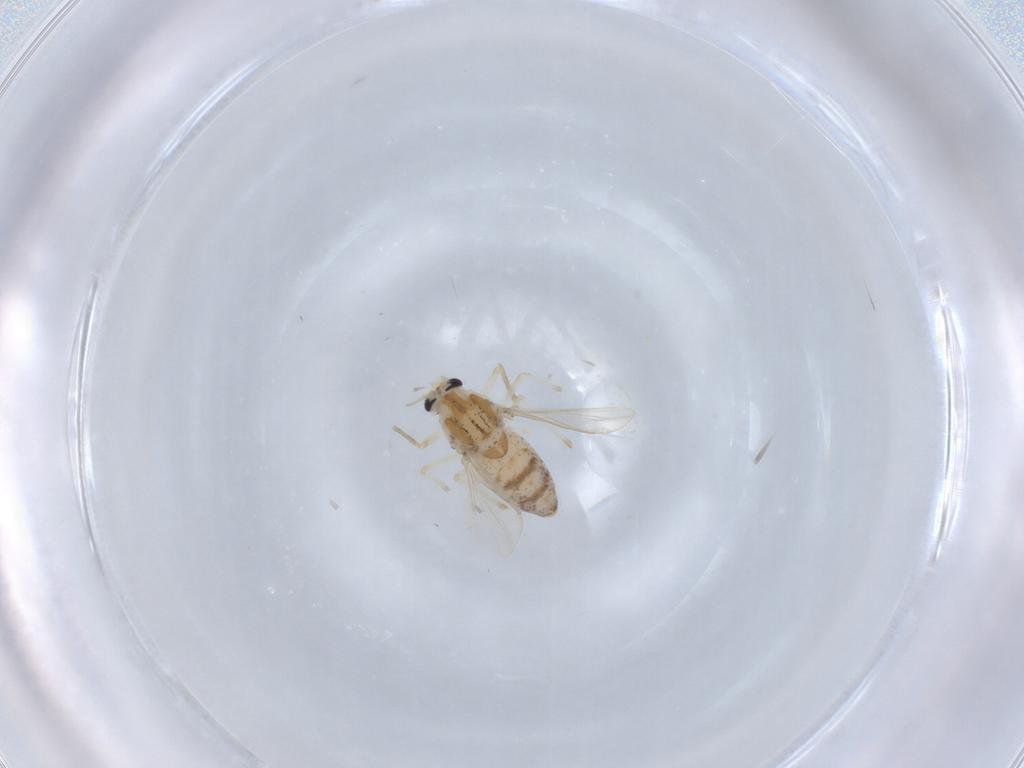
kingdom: Animalia
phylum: Arthropoda
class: Insecta
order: Diptera
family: Chironomidae
